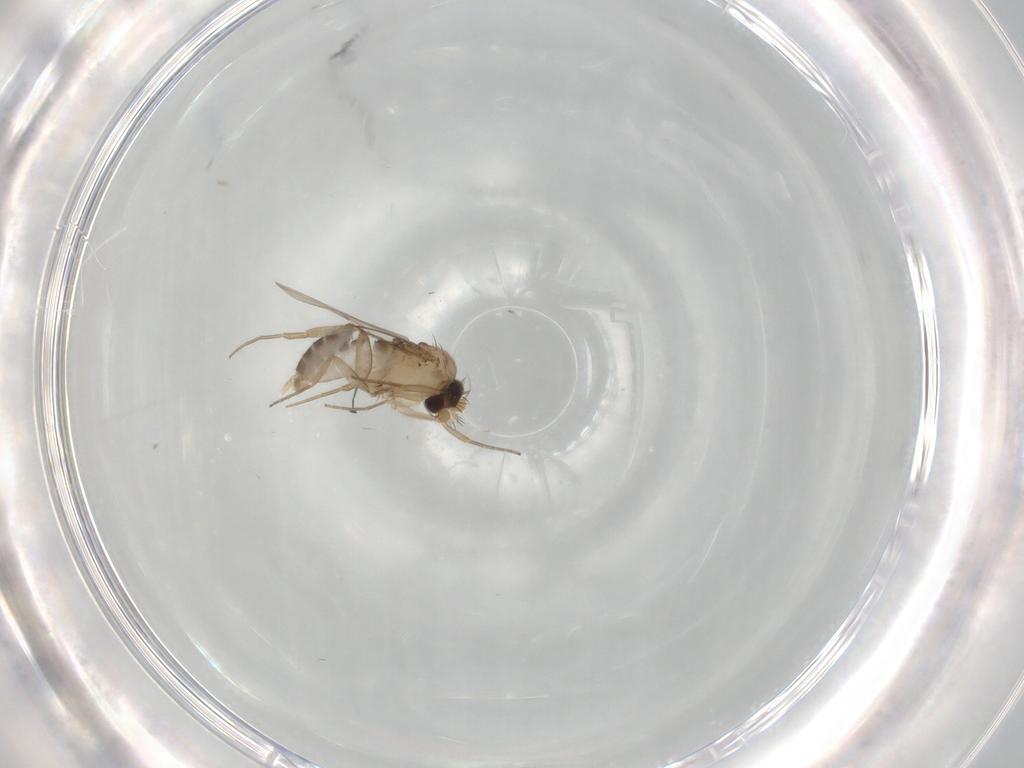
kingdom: Animalia
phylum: Arthropoda
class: Insecta
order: Diptera
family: Phoridae
